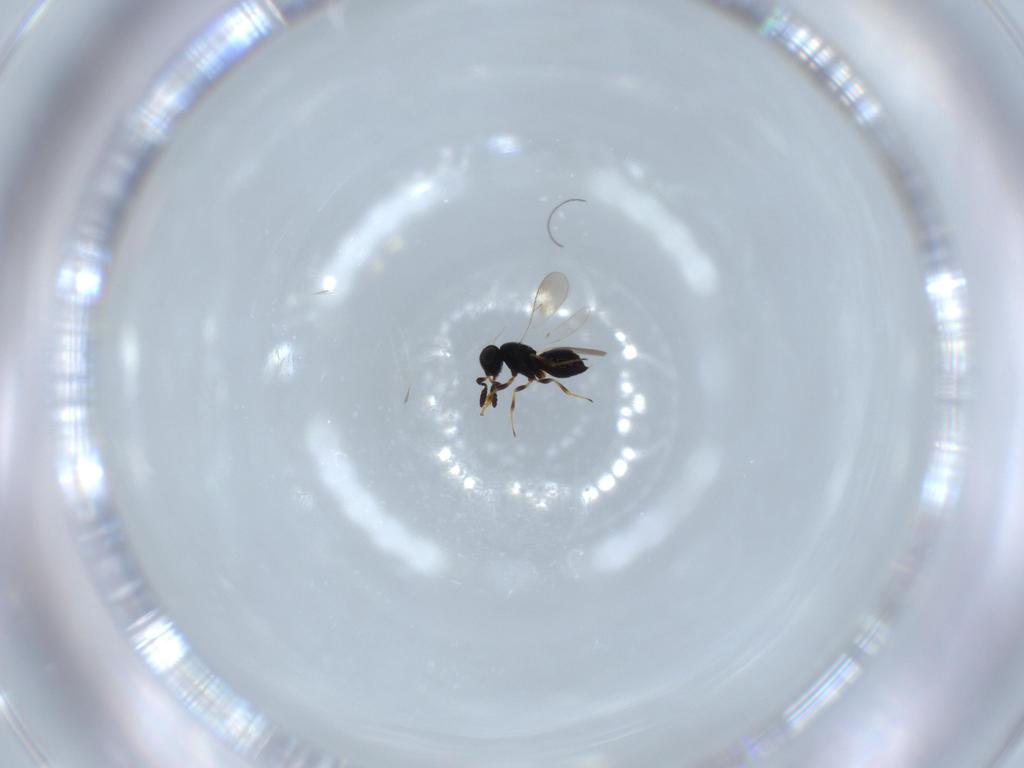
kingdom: Animalia
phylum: Arthropoda
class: Insecta
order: Hymenoptera
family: Scelionidae
